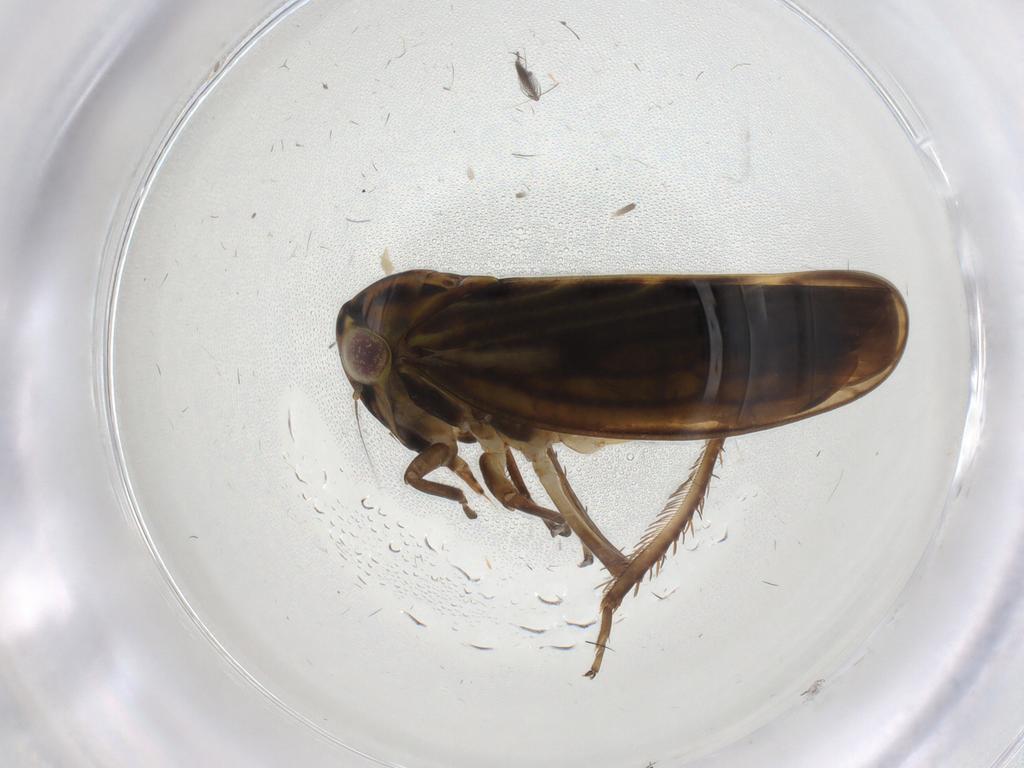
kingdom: Animalia
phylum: Arthropoda
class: Insecta
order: Hemiptera
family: Cicadellidae
